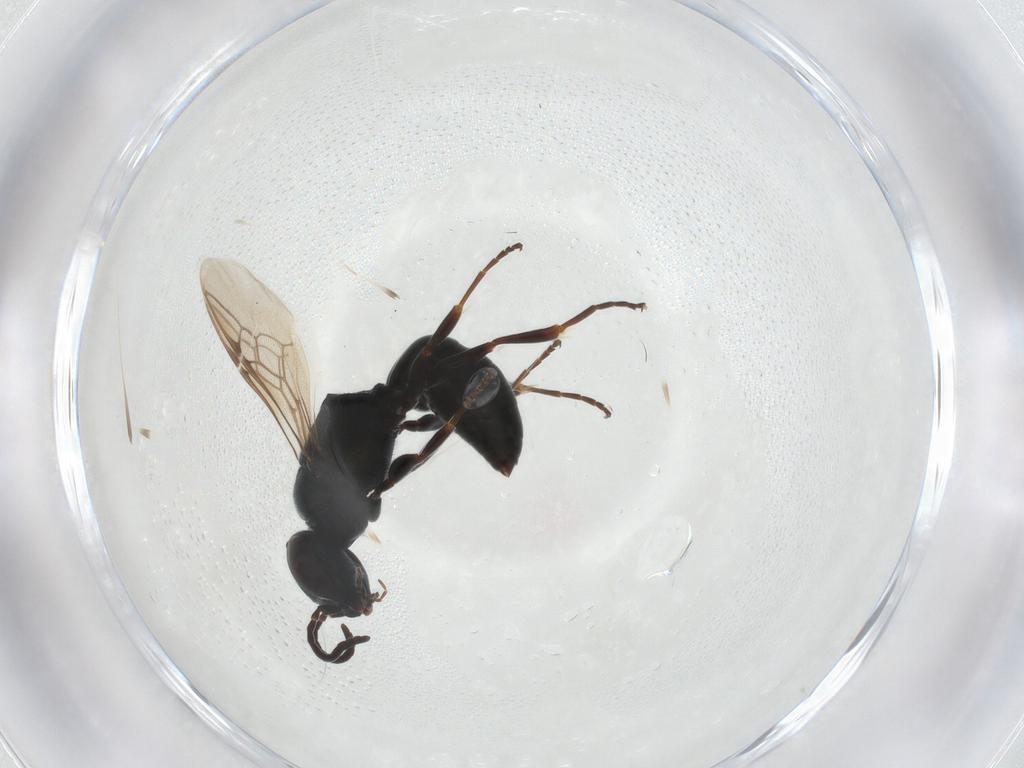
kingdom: Animalia
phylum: Arthropoda
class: Insecta
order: Hymenoptera
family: Crabronidae
